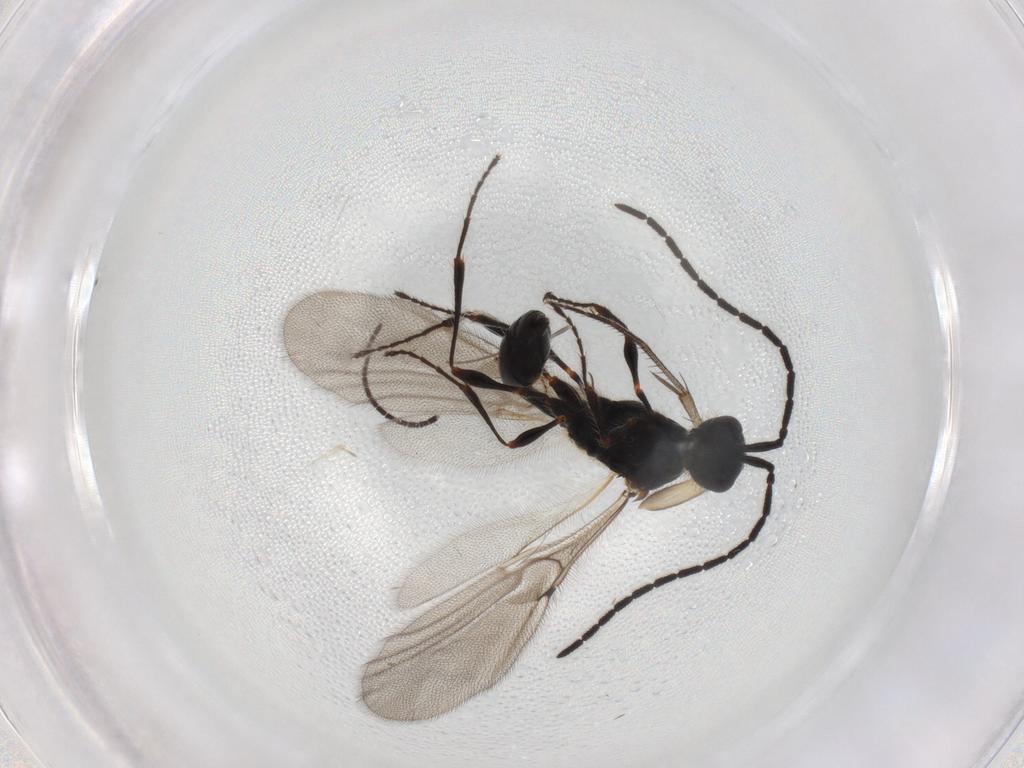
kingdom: Animalia
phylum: Arthropoda
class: Insecta
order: Hymenoptera
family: Diapriidae
